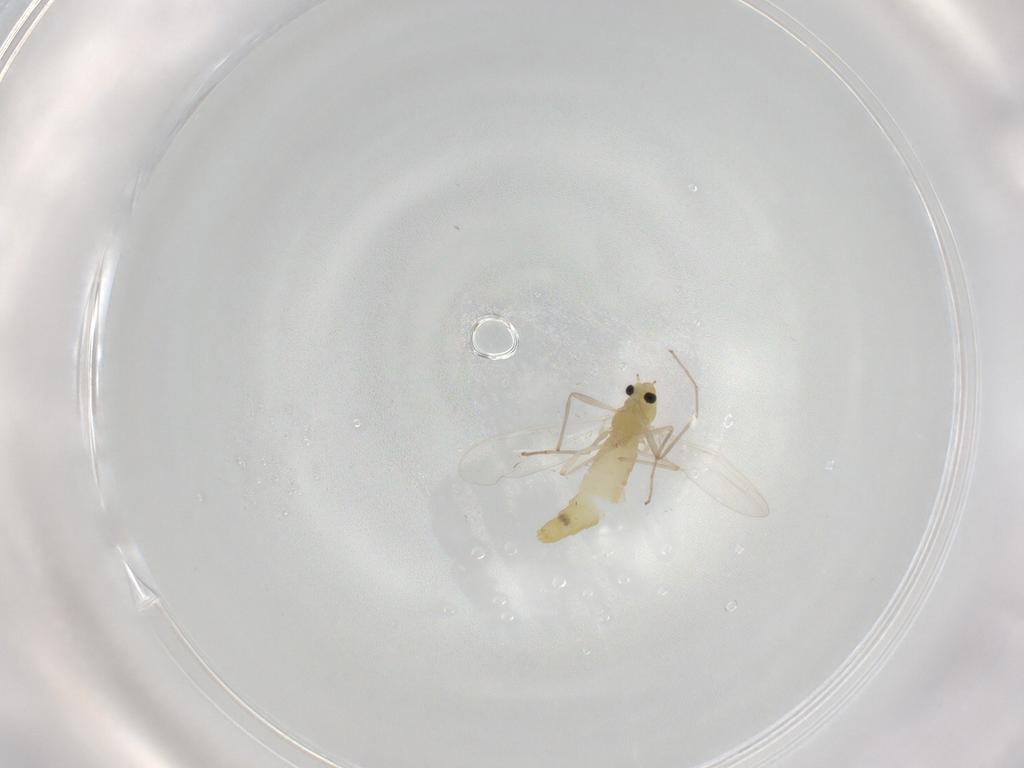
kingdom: Animalia
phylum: Arthropoda
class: Insecta
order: Diptera
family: Chironomidae
